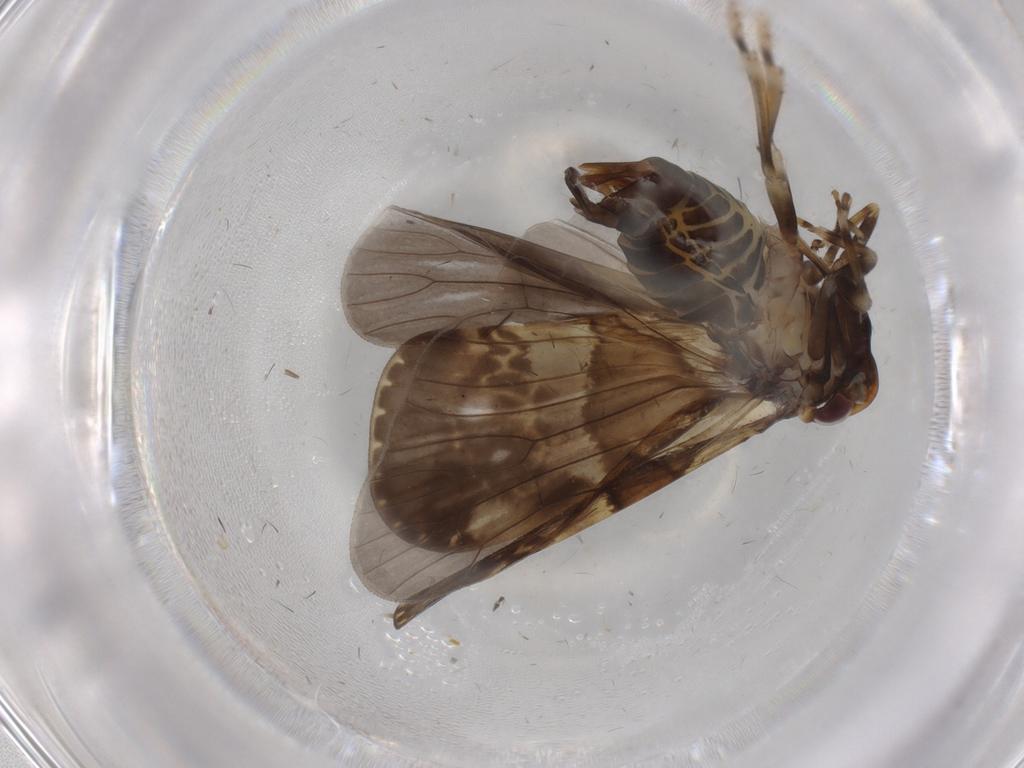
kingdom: Animalia
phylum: Arthropoda
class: Insecta
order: Hemiptera
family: Cixiidae
